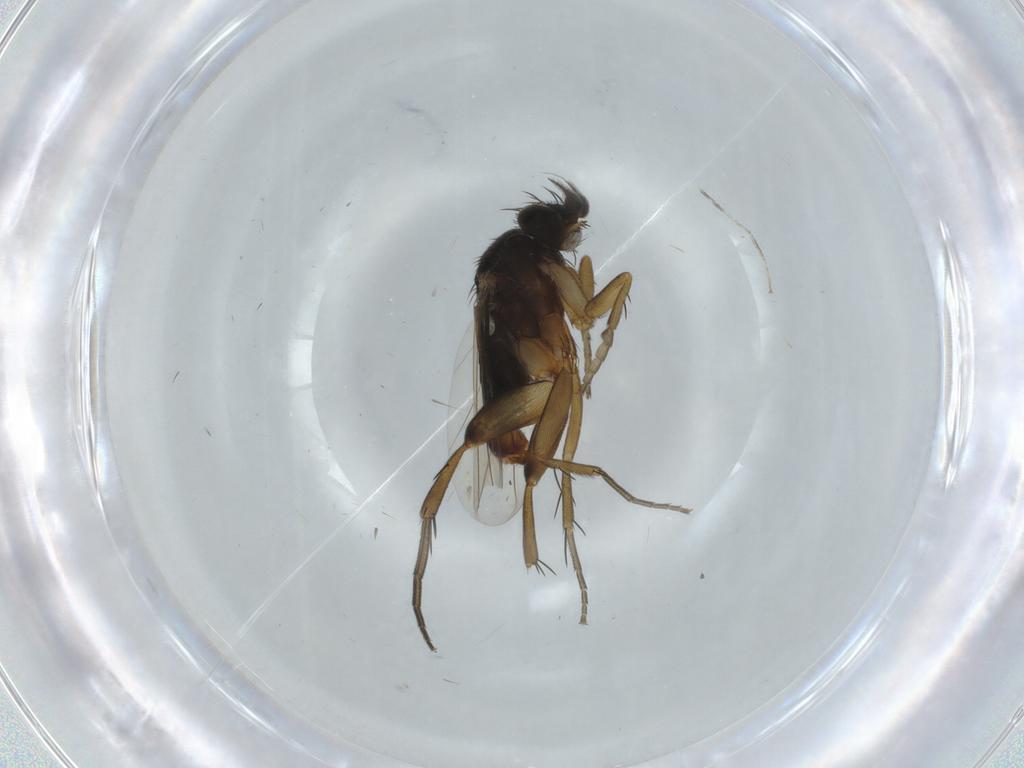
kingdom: Animalia
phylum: Arthropoda
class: Insecta
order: Diptera
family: Phoridae
